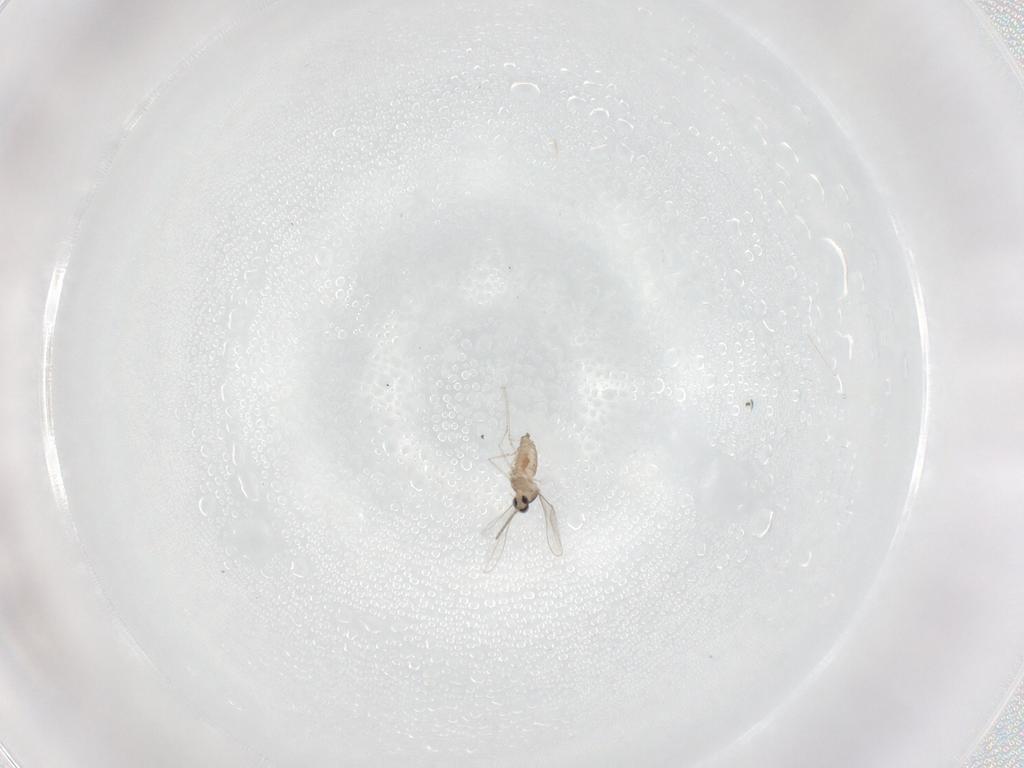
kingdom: Animalia
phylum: Arthropoda
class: Insecta
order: Diptera
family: Cecidomyiidae
